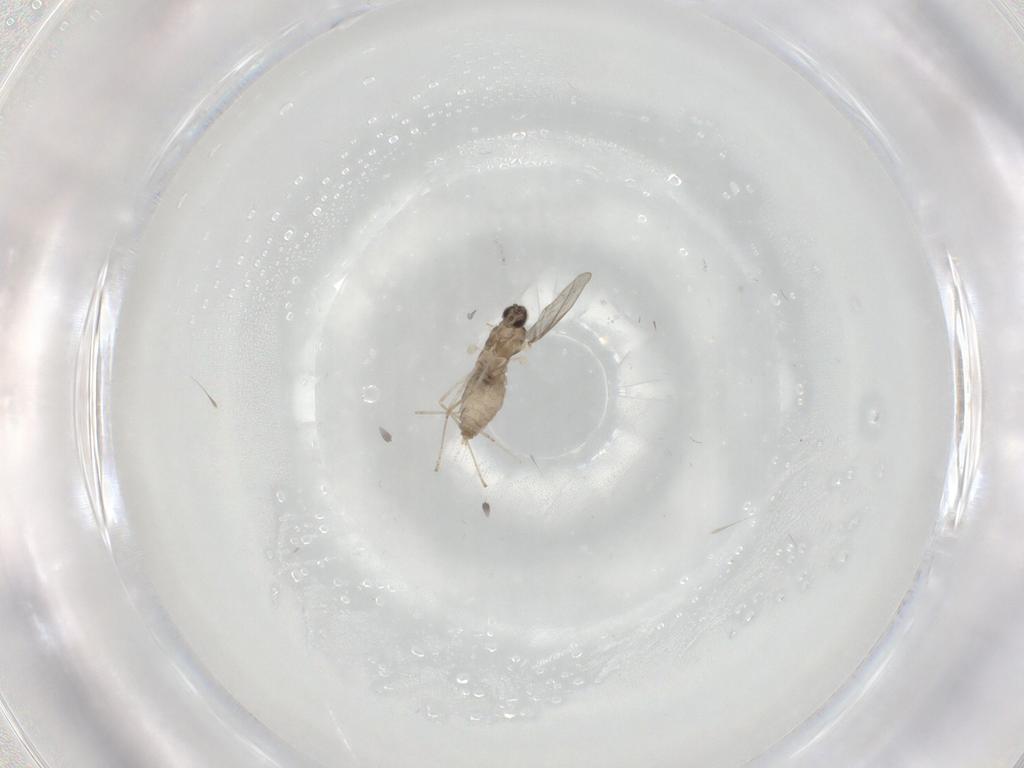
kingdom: Animalia
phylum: Arthropoda
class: Insecta
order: Diptera
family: Cecidomyiidae
